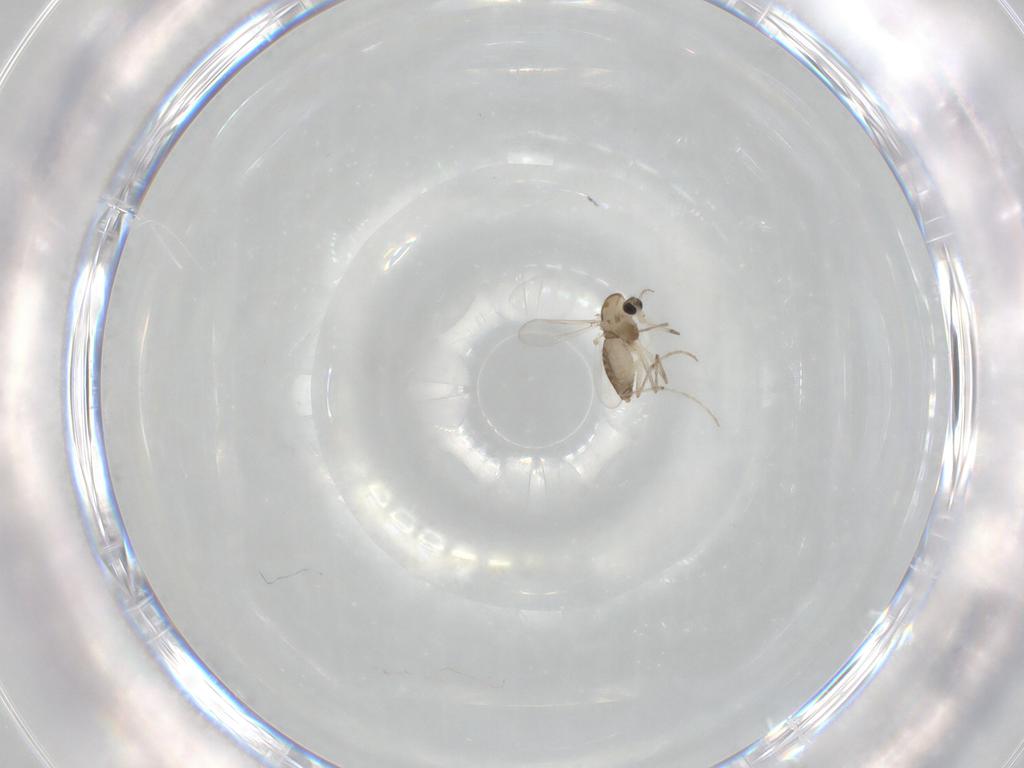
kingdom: Animalia
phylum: Arthropoda
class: Insecta
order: Diptera
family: Chironomidae
